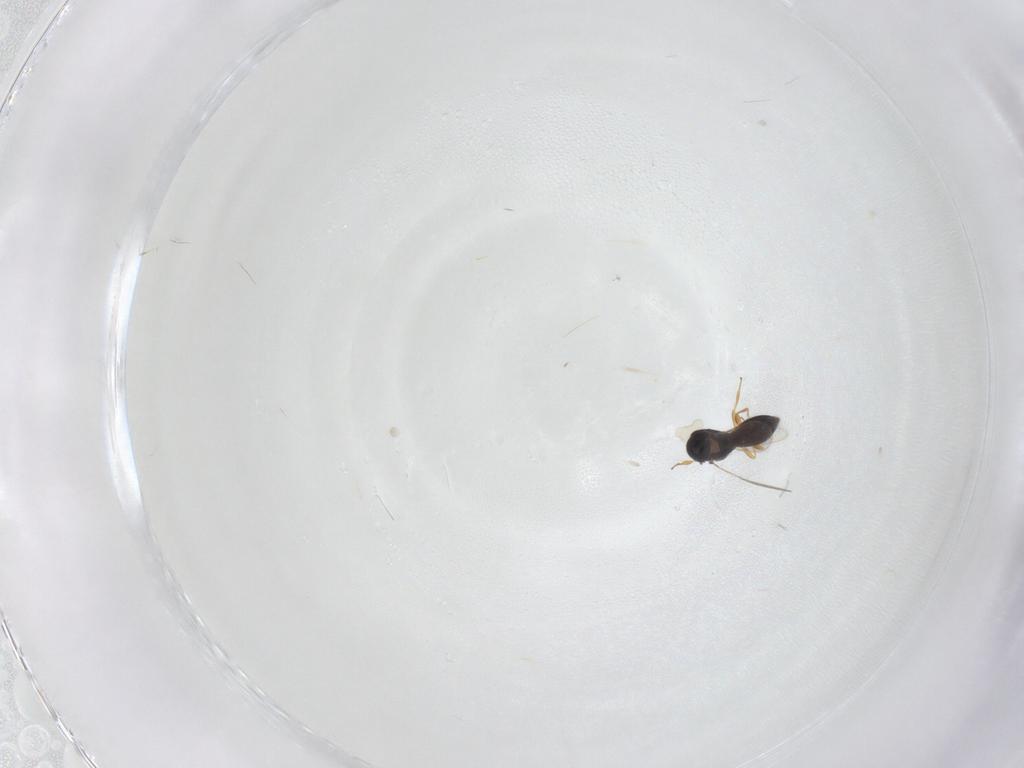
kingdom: Animalia
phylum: Arthropoda
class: Insecta
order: Hymenoptera
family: Scelionidae
